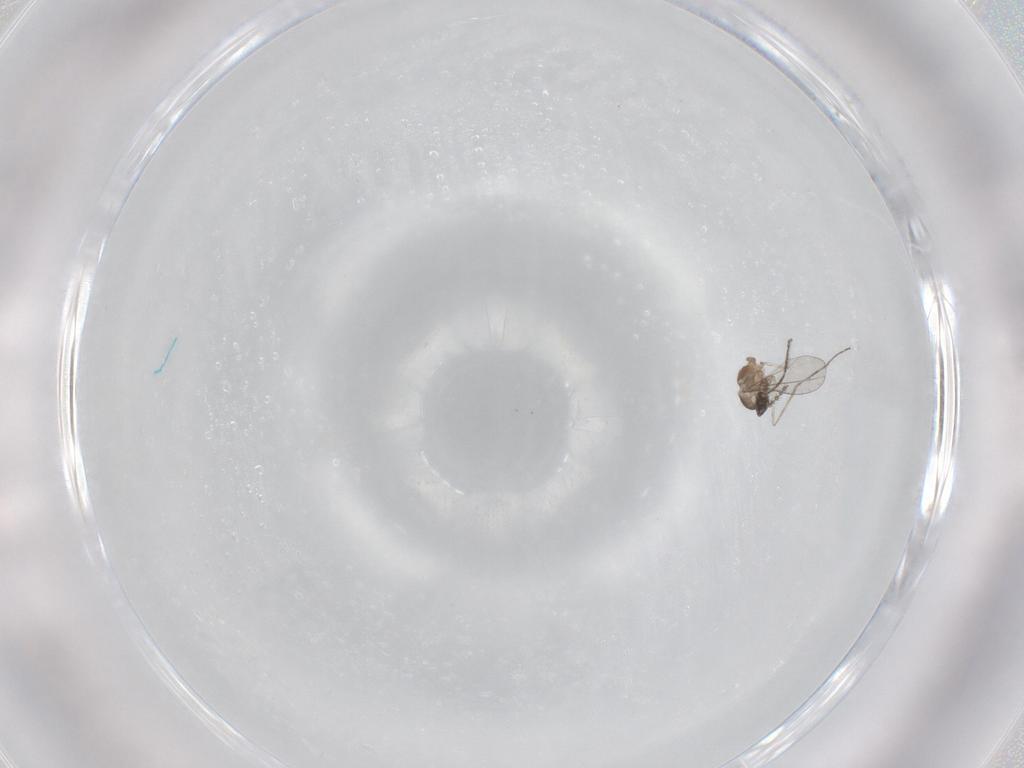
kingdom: Animalia
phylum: Arthropoda
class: Insecta
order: Diptera
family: Cecidomyiidae
